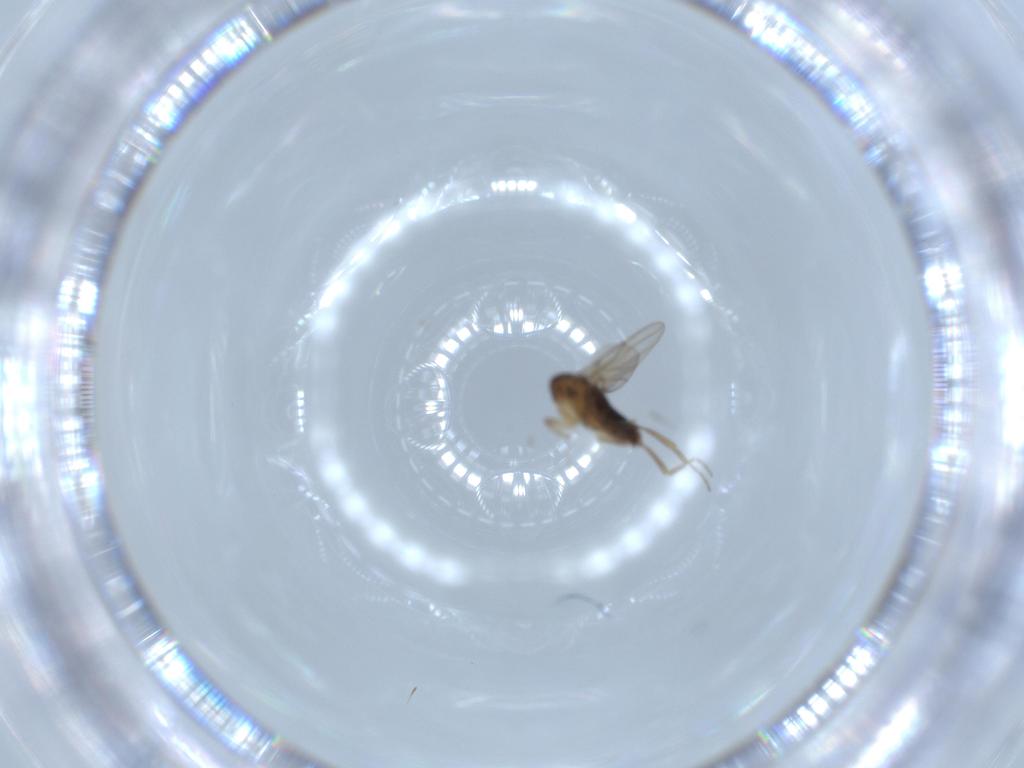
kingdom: Animalia
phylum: Arthropoda
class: Insecta
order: Diptera
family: Phoridae
